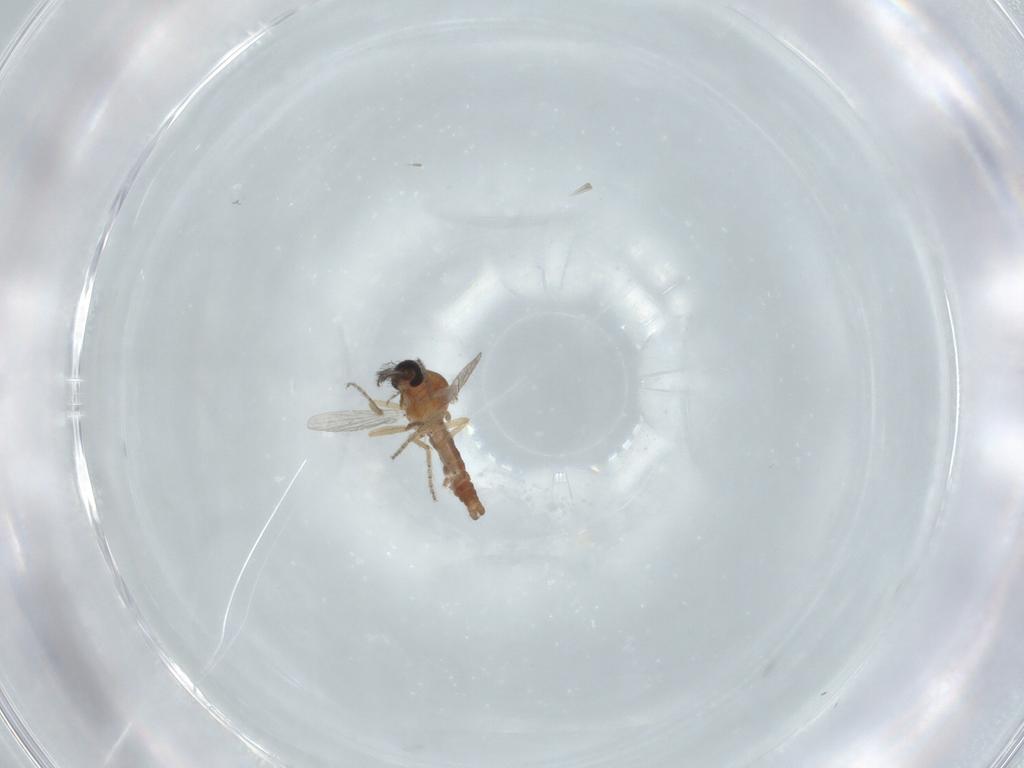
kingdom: Animalia
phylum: Arthropoda
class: Insecta
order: Diptera
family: Ceratopogonidae
